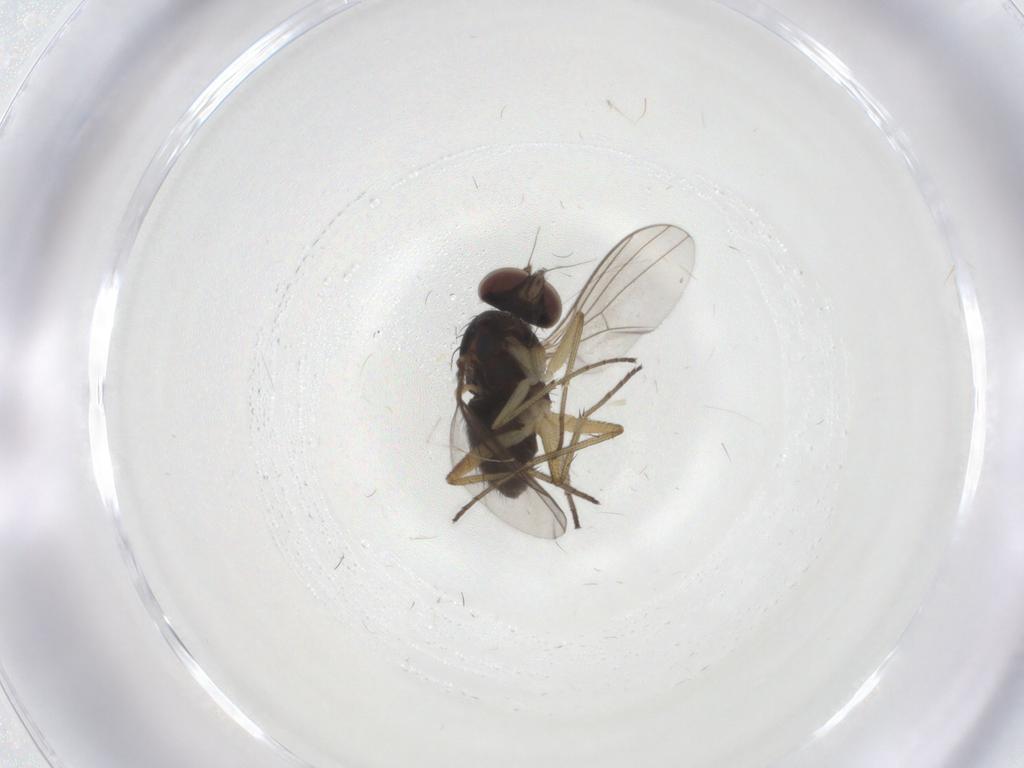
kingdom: Animalia
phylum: Arthropoda
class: Insecta
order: Diptera
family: Dolichopodidae
